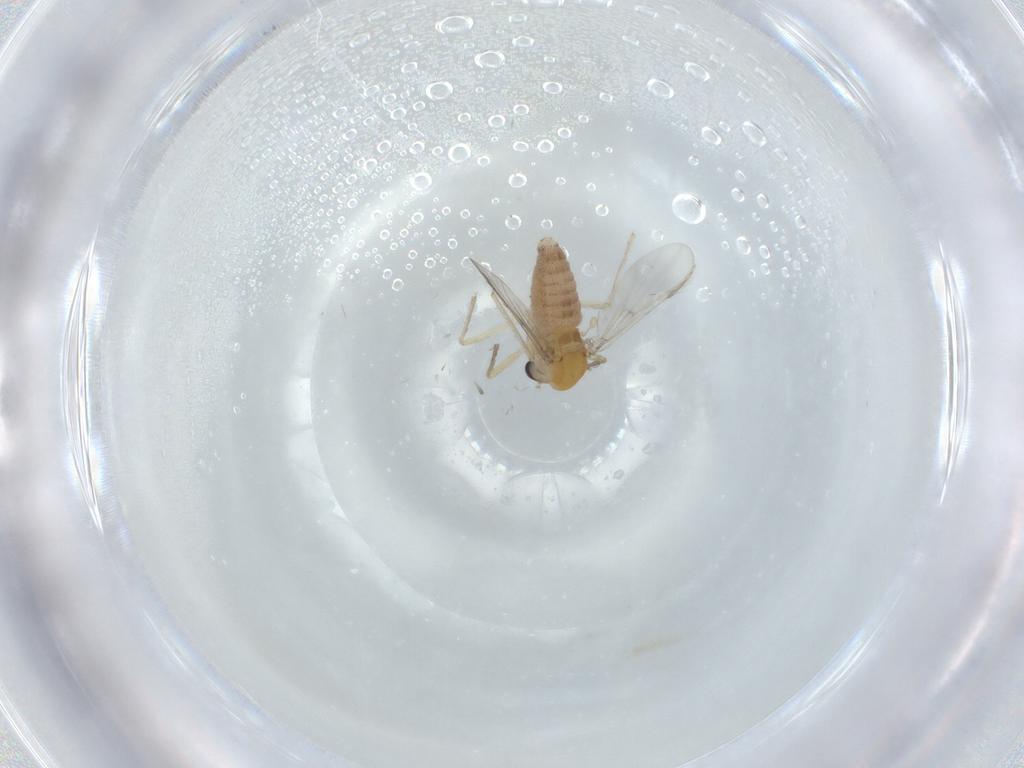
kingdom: Animalia
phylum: Arthropoda
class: Insecta
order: Diptera
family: Chironomidae
